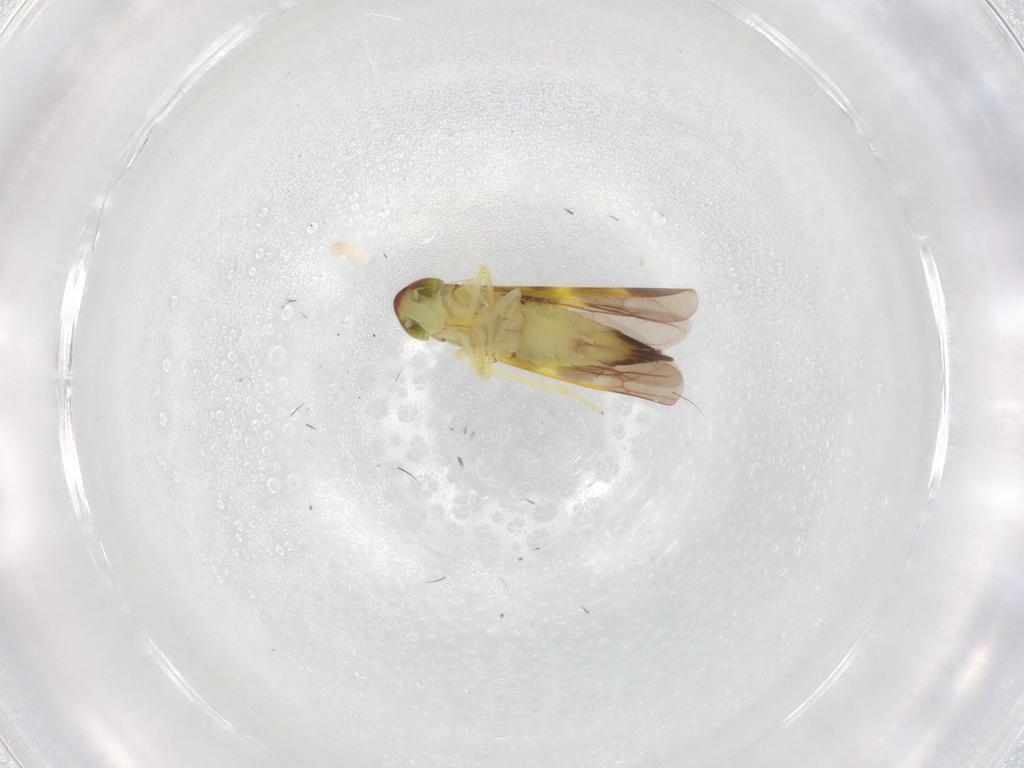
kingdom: Animalia
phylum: Arthropoda
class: Insecta
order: Hemiptera
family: Cicadellidae
